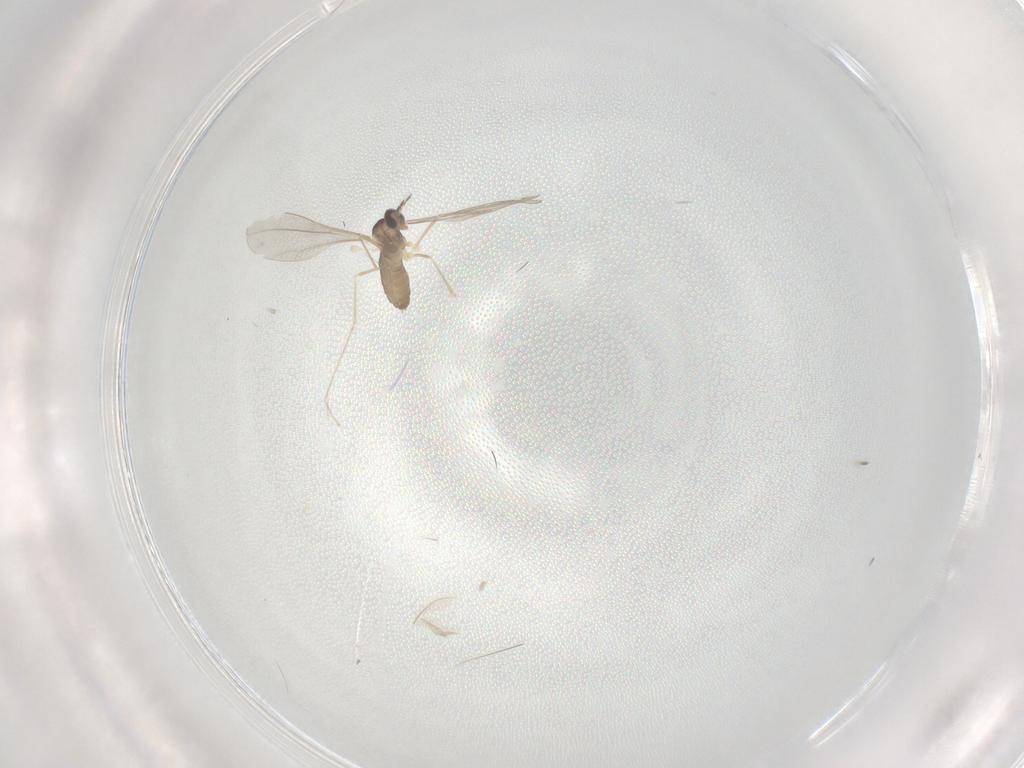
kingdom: Animalia
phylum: Arthropoda
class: Insecta
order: Diptera
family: Cecidomyiidae
